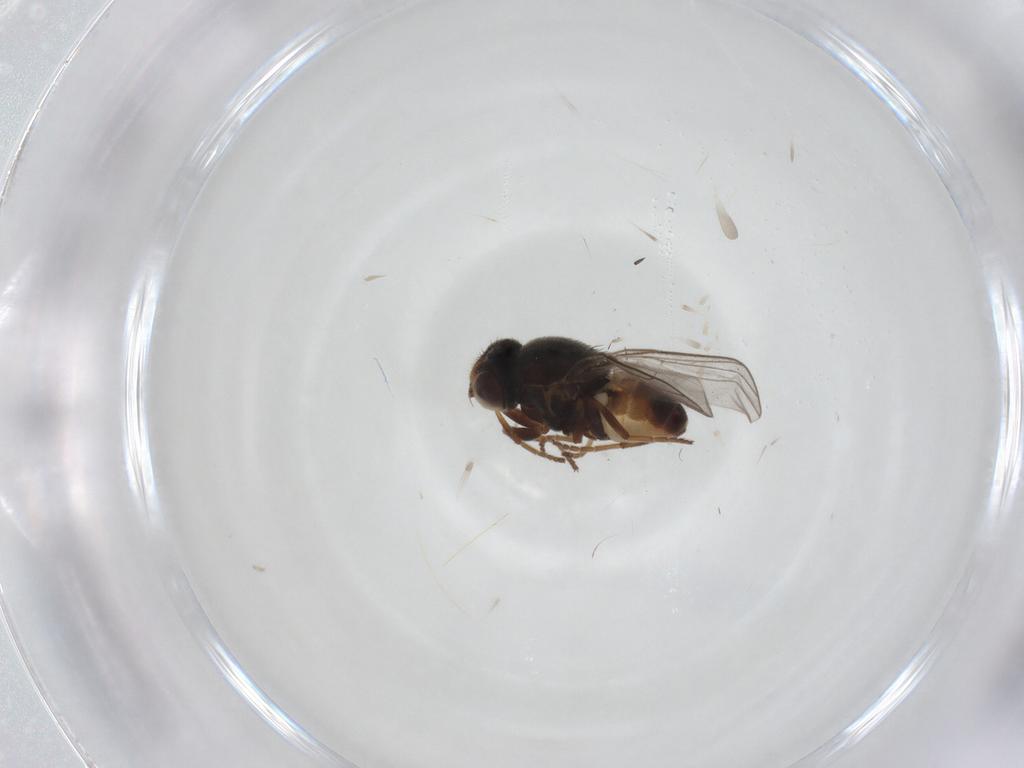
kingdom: Animalia
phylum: Arthropoda
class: Insecta
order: Diptera
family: Chloropidae
